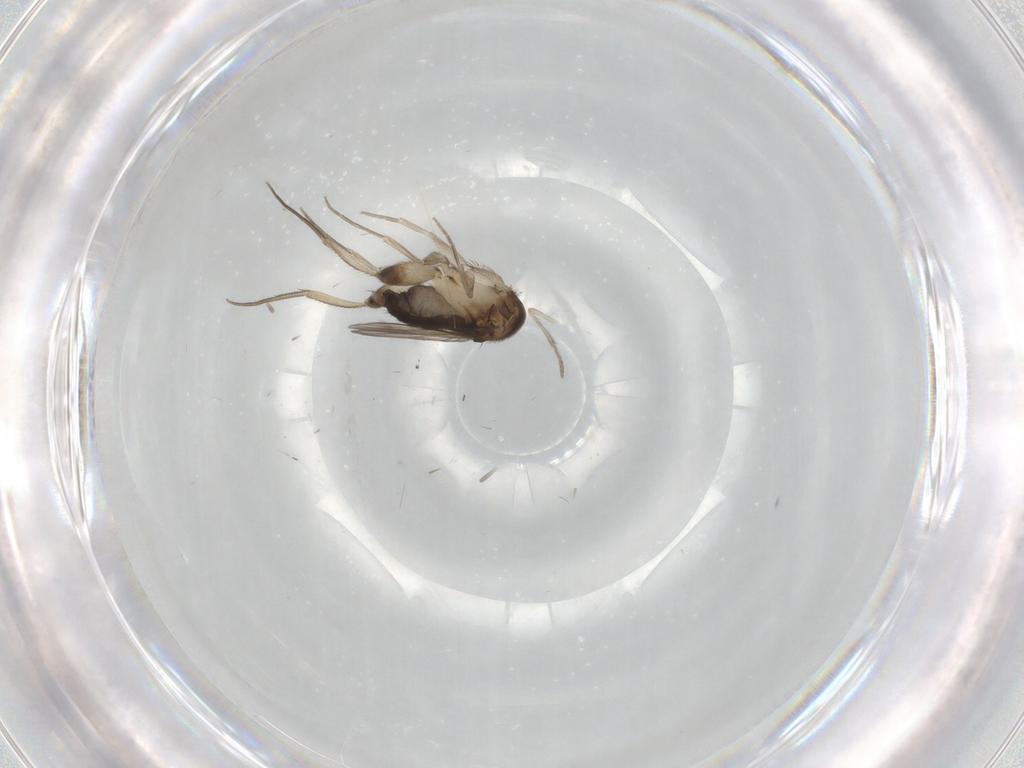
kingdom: Animalia
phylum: Arthropoda
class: Insecta
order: Diptera
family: Phoridae
